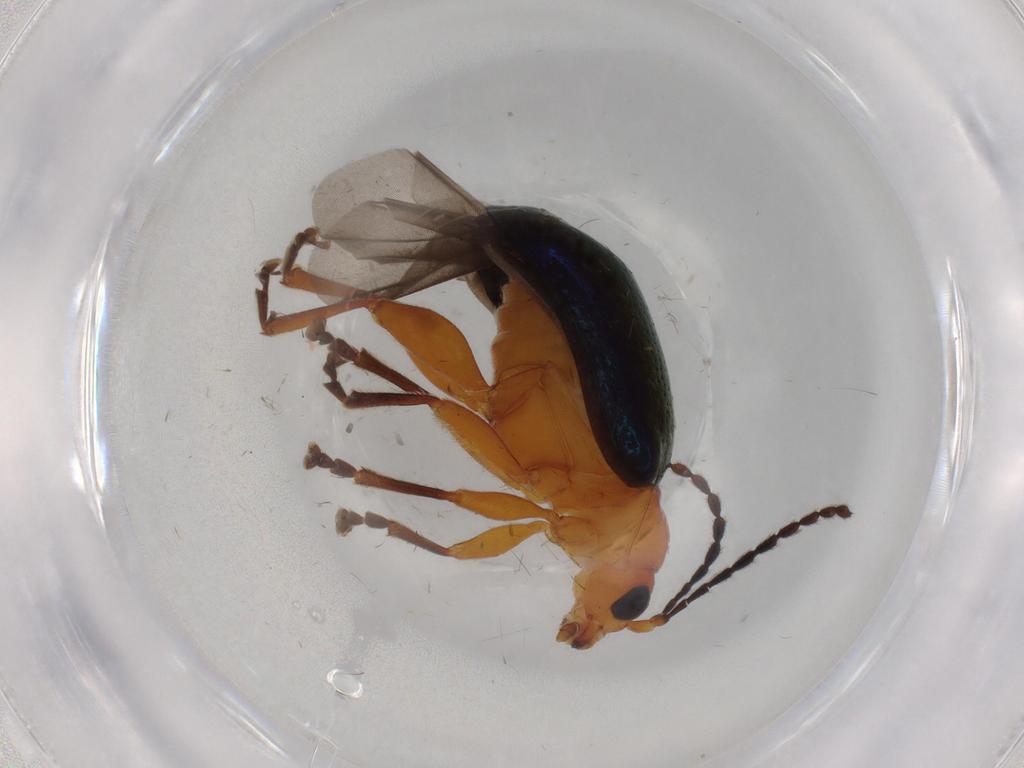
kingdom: Animalia
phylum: Arthropoda
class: Insecta
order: Coleoptera
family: Chrysomelidae
